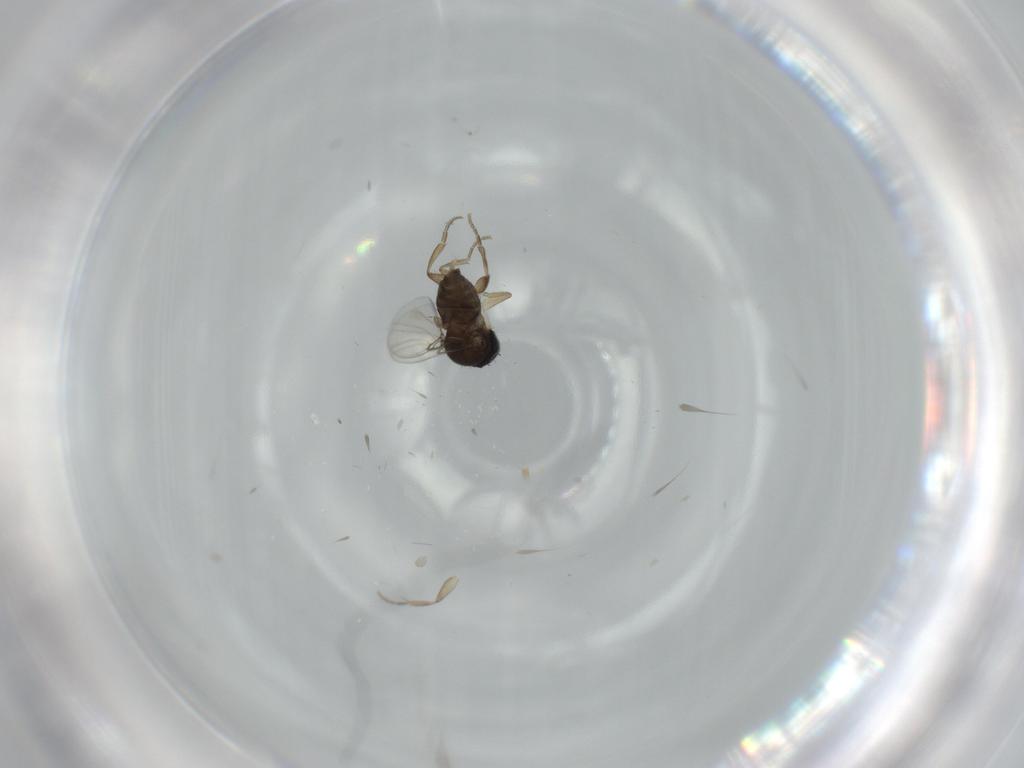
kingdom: Animalia
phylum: Arthropoda
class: Insecta
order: Diptera
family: Phoridae
